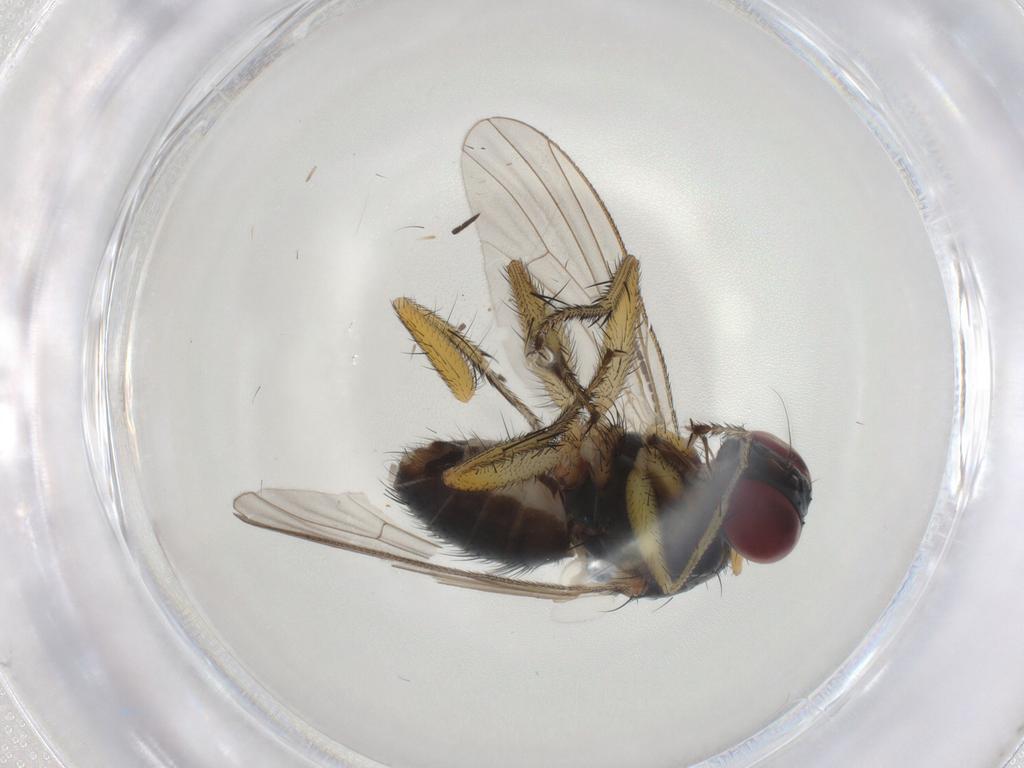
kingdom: Animalia
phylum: Arthropoda
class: Insecta
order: Diptera
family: Muscidae
